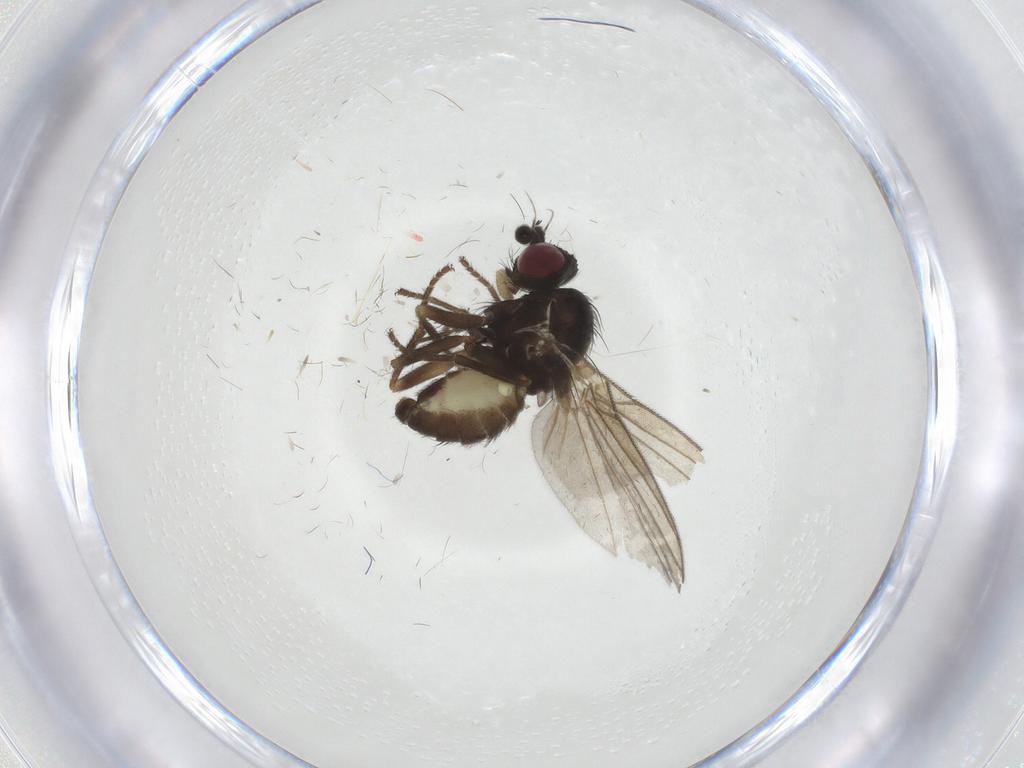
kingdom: Animalia
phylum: Arthropoda
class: Insecta
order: Diptera
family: Agromyzidae
